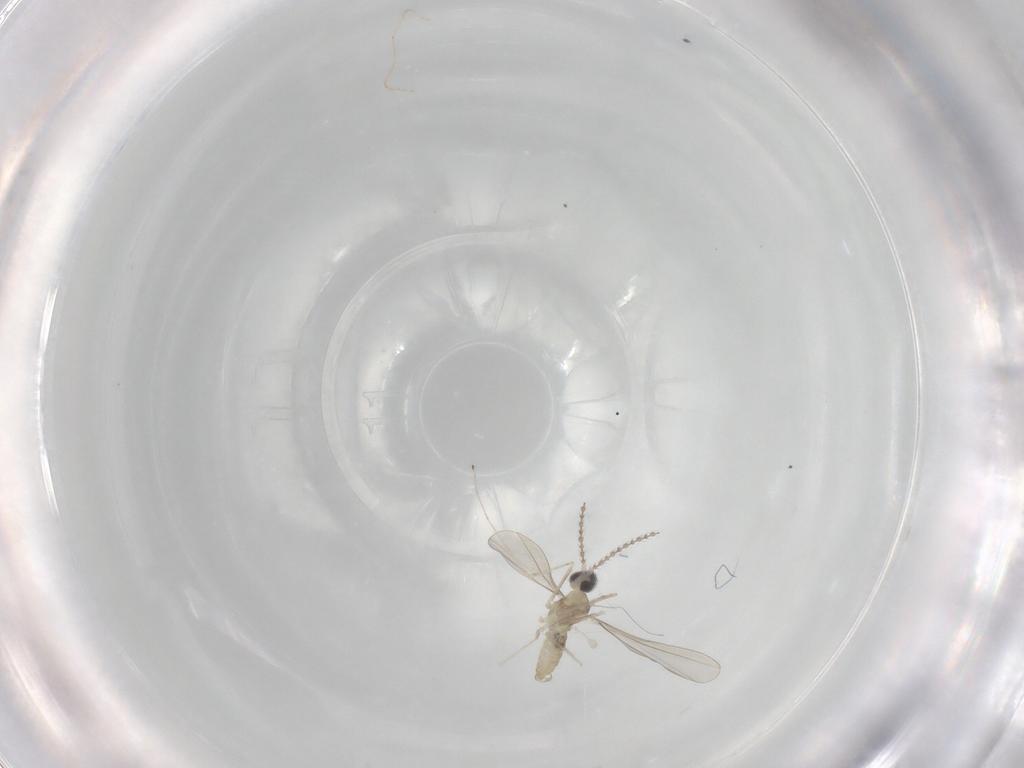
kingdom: Animalia
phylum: Arthropoda
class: Insecta
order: Diptera
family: Cecidomyiidae
